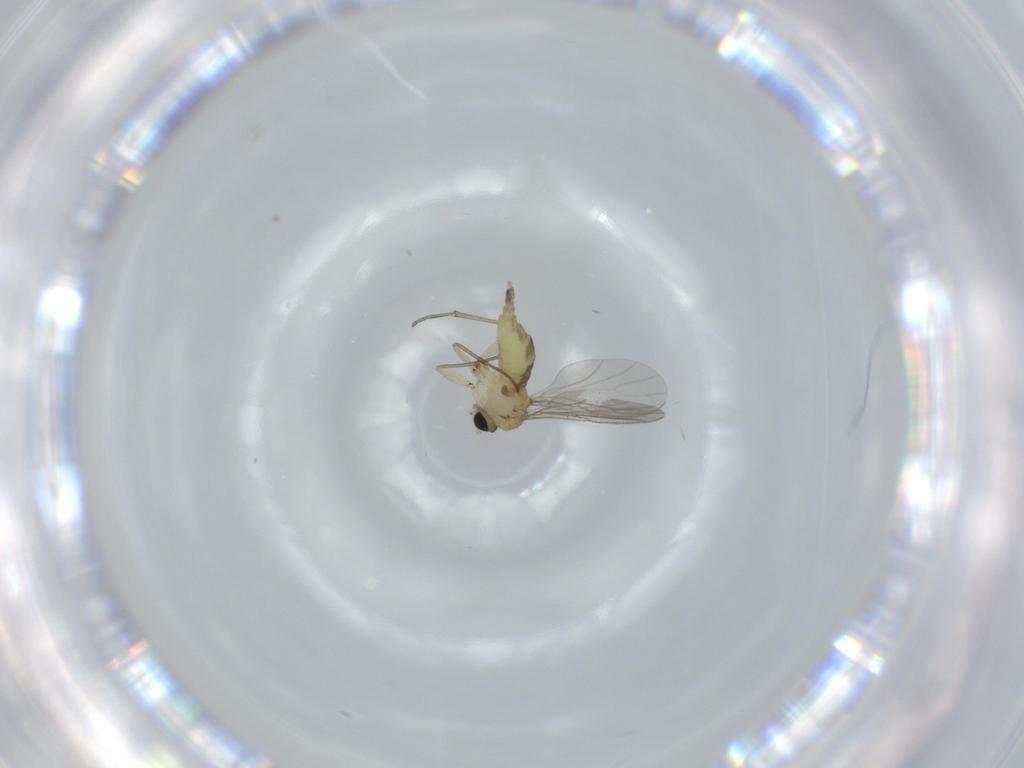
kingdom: Animalia
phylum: Arthropoda
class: Insecta
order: Diptera
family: Sciaridae
